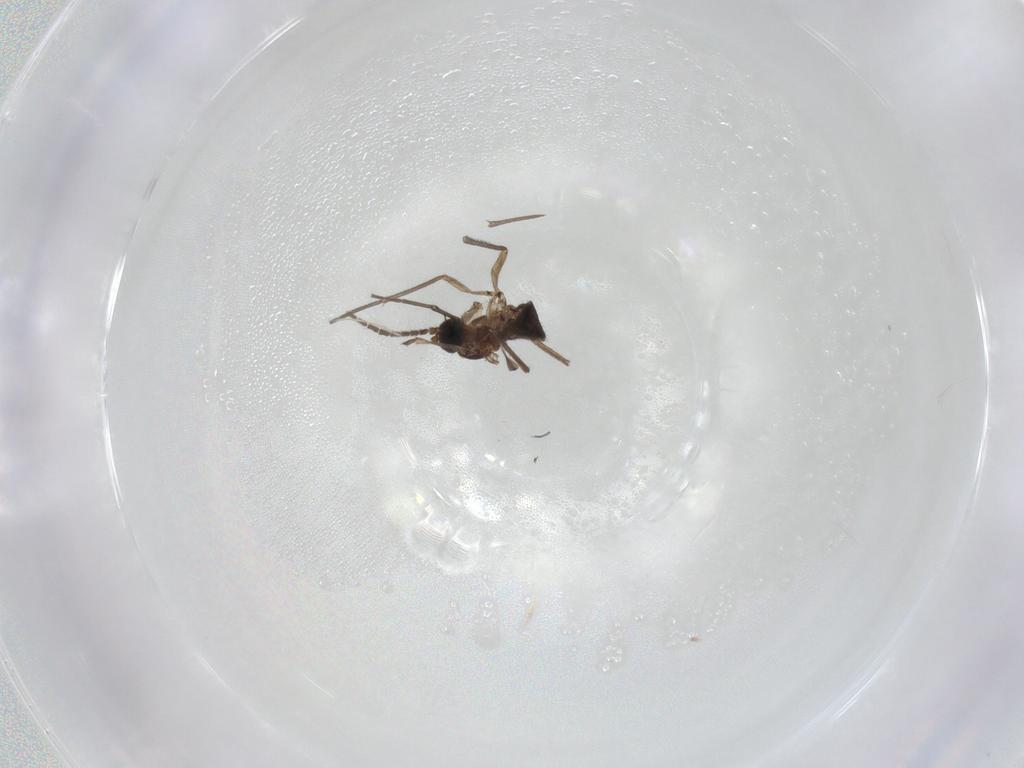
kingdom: Animalia
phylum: Arthropoda
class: Insecta
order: Diptera
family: Sciaridae
